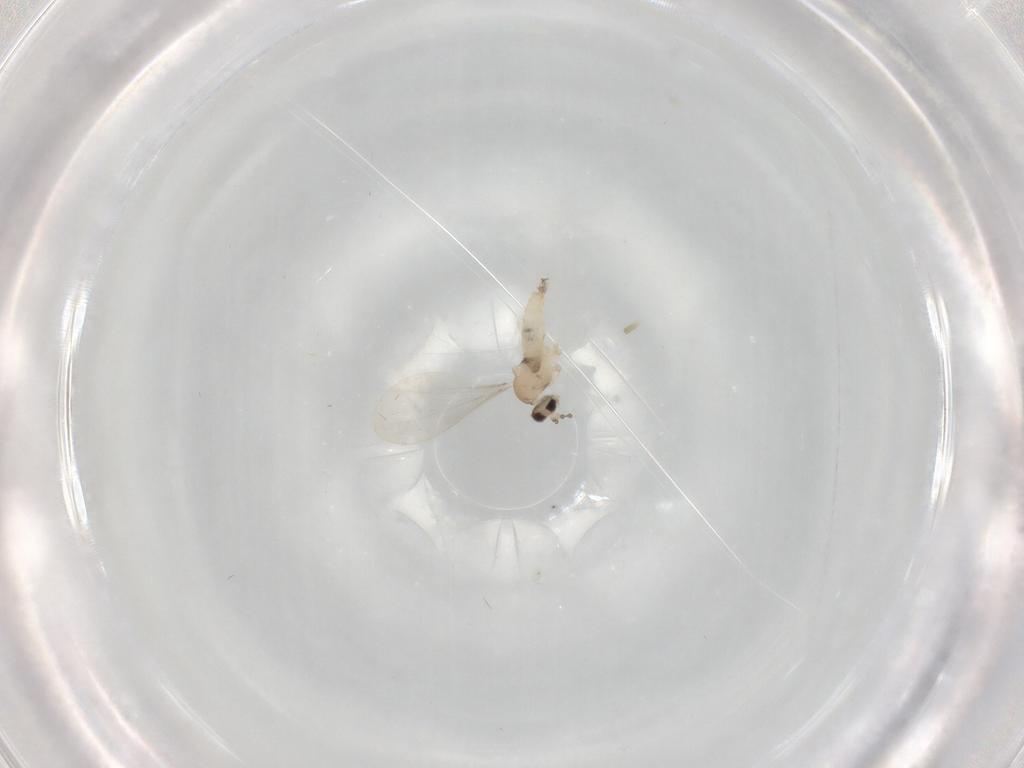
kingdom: Animalia
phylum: Arthropoda
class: Insecta
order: Diptera
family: Cecidomyiidae
